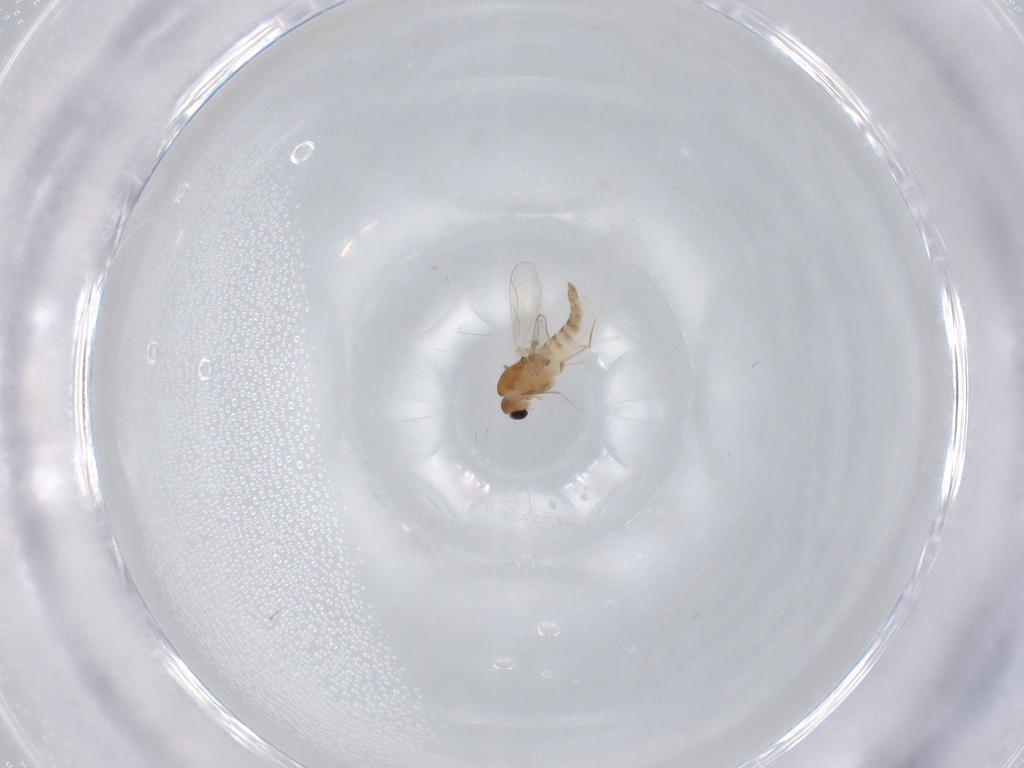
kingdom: Animalia
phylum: Arthropoda
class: Insecta
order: Diptera
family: Chironomidae
